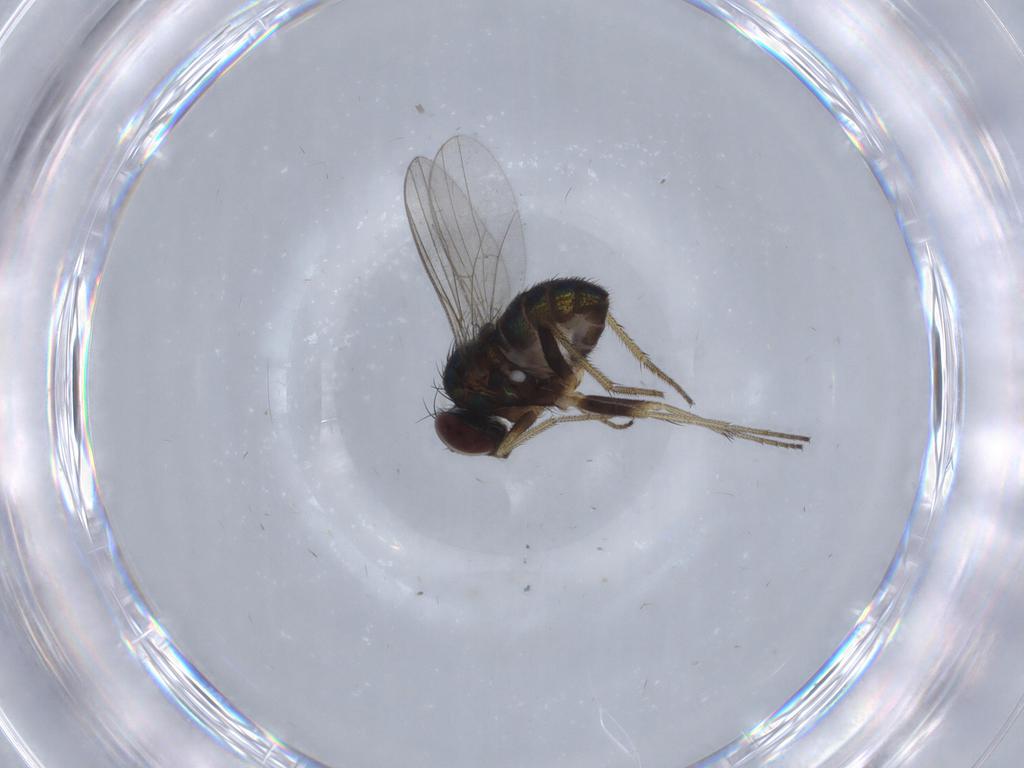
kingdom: Animalia
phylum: Arthropoda
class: Insecta
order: Diptera
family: Dolichopodidae
